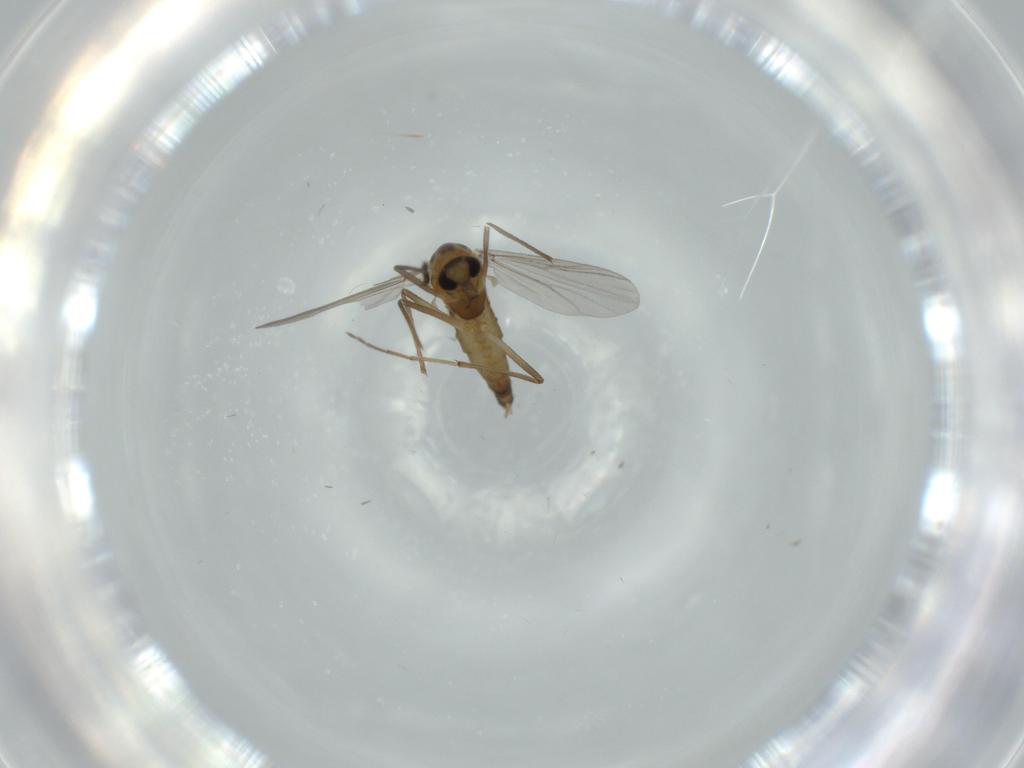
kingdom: Animalia
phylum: Arthropoda
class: Insecta
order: Diptera
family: Chironomidae
